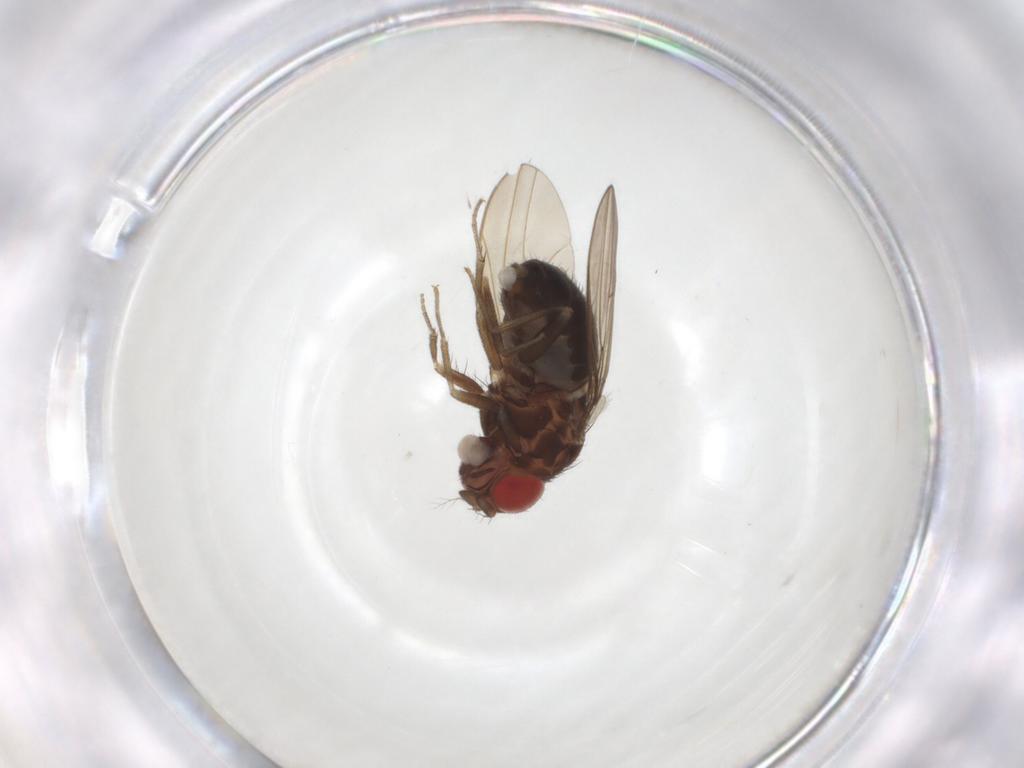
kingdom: Animalia
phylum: Arthropoda
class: Insecta
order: Diptera
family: Drosophilidae
